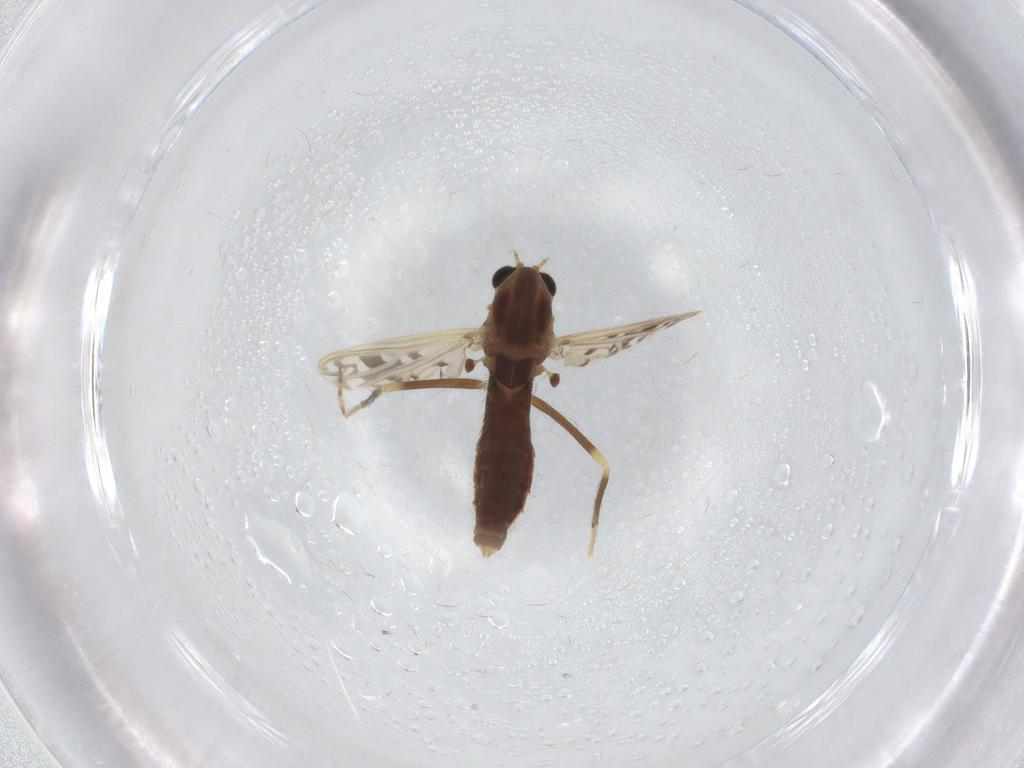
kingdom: Animalia
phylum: Arthropoda
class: Insecta
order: Diptera
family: Chironomidae
